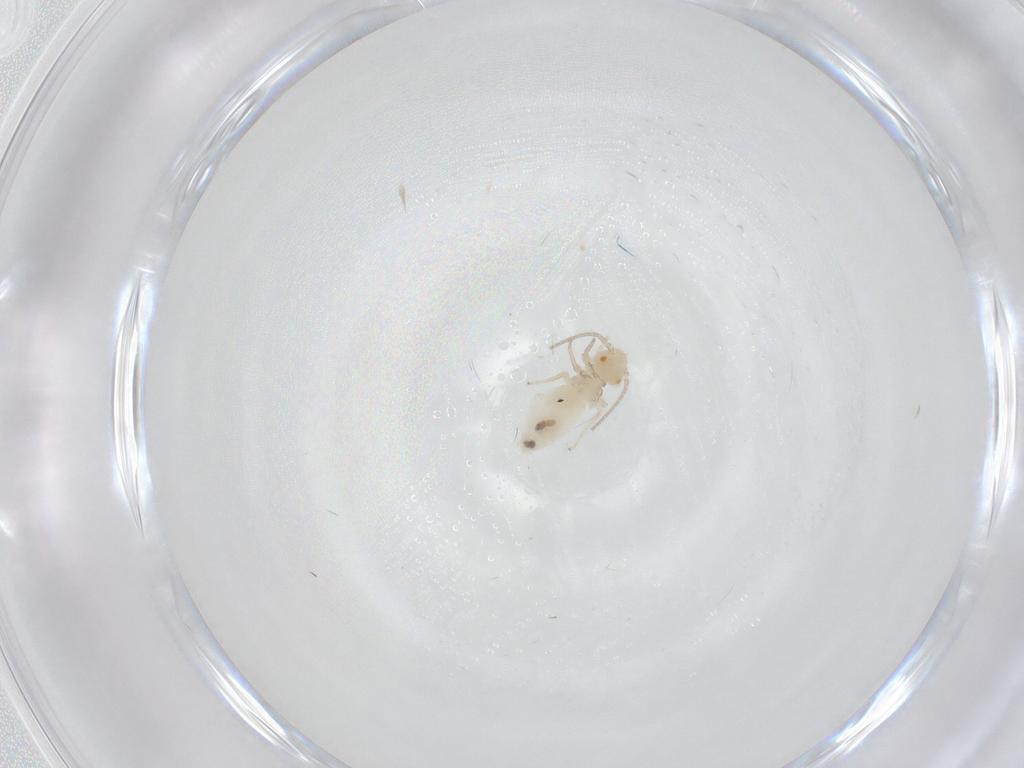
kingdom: Animalia
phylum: Arthropoda
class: Insecta
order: Psocodea
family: Caeciliusidae
